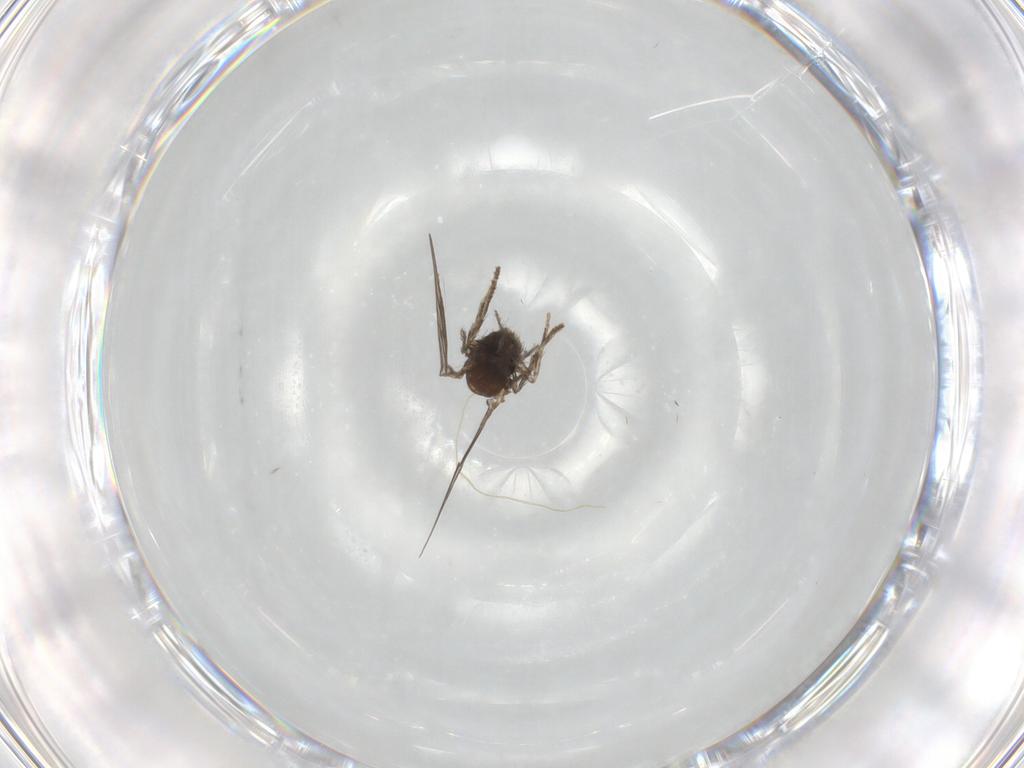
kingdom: Animalia
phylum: Arthropoda
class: Insecta
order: Diptera
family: Psychodidae
